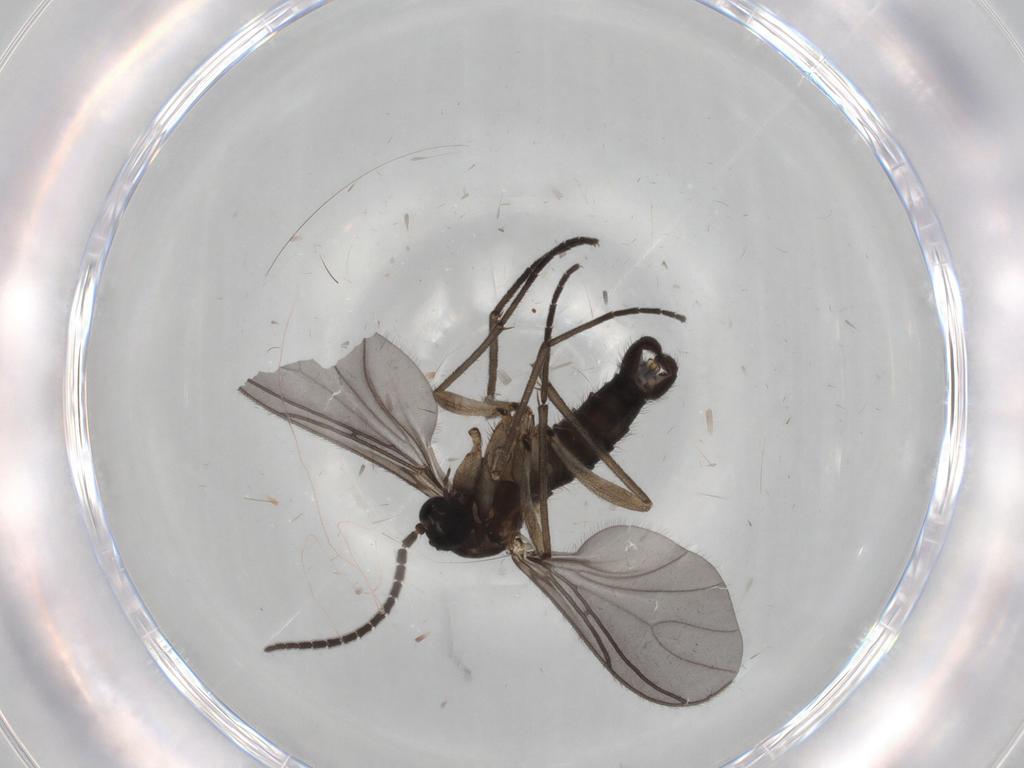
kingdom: Animalia
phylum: Arthropoda
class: Insecta
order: Diptera
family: Sciaridae
